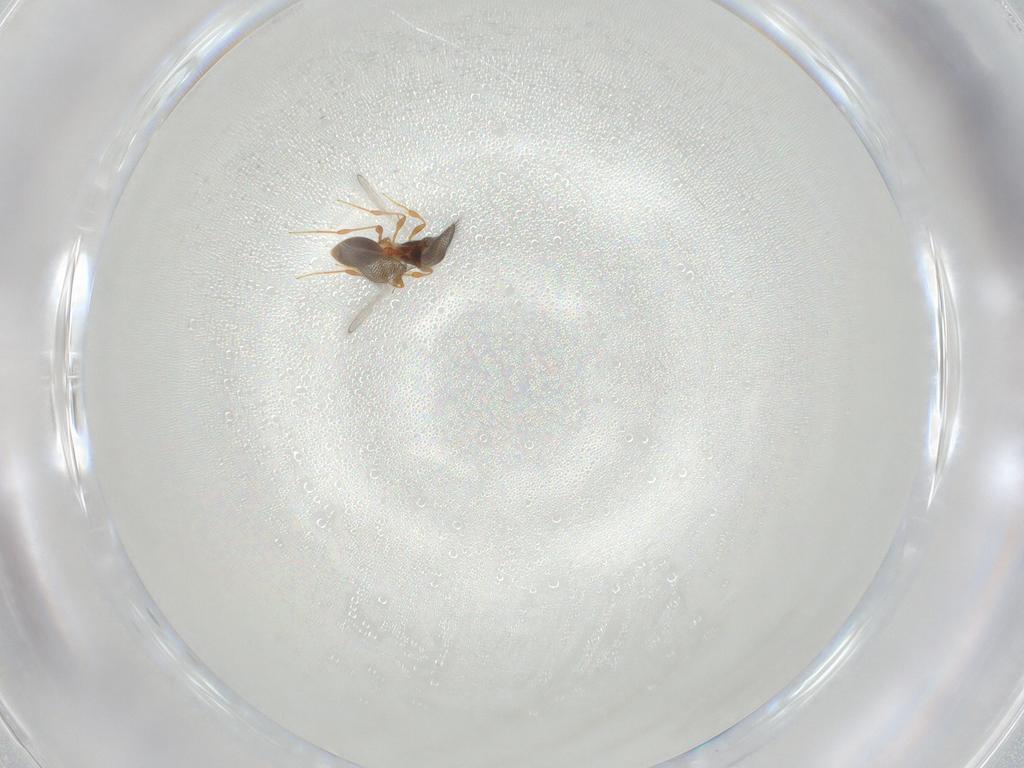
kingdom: Animalia
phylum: Arthropoda
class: Insecta
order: Hymenoptera
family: Platygastridae
